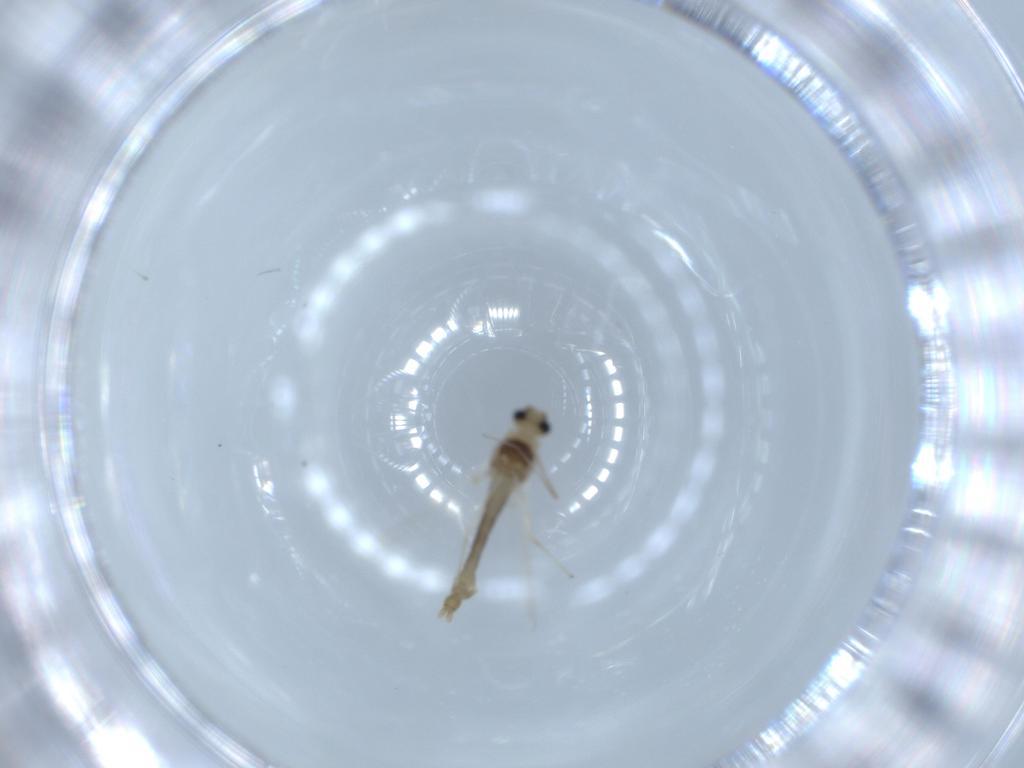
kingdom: Animalia
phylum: Arthropoda
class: Insecta
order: Diptera
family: Chironomidae
